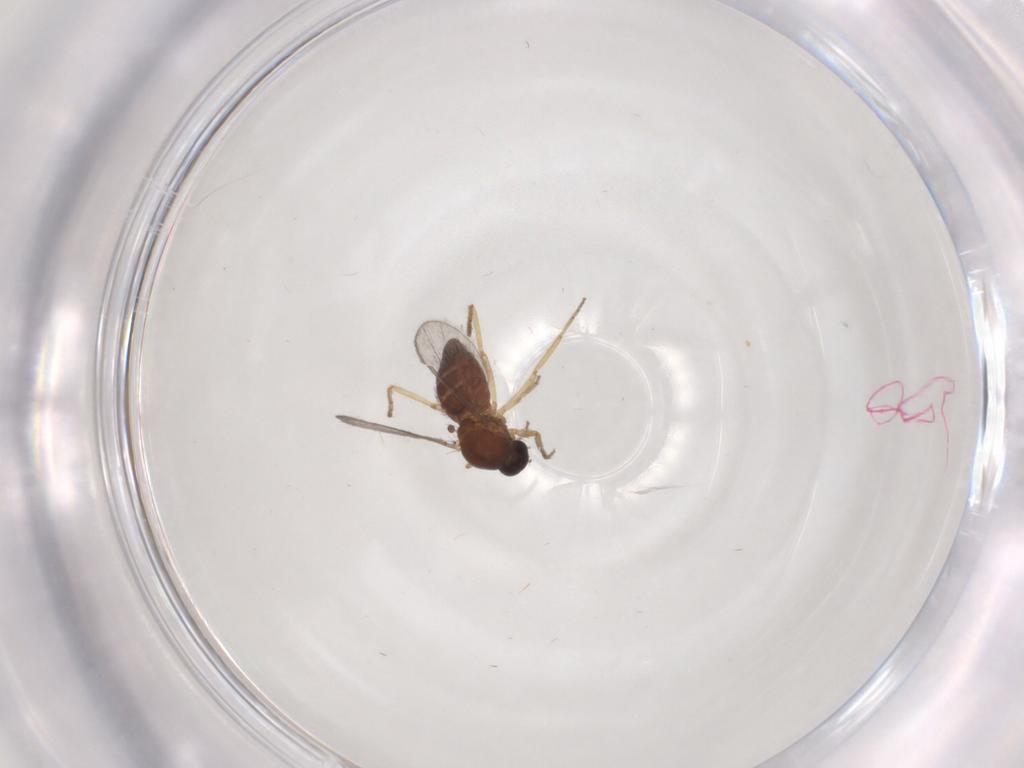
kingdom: Animalia
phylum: Arthropoda
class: Insecta
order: Diptera
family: Ceratopogonidae
